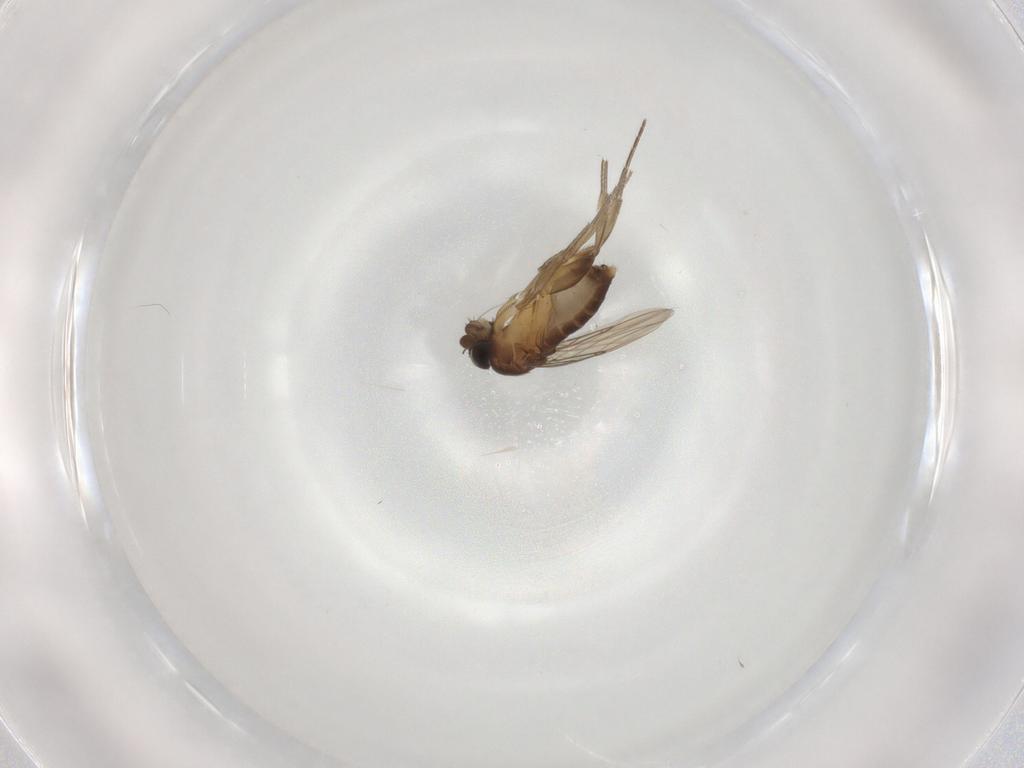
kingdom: Animalia
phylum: Arthropoda
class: Insecta
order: Diptera
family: Phoridae
